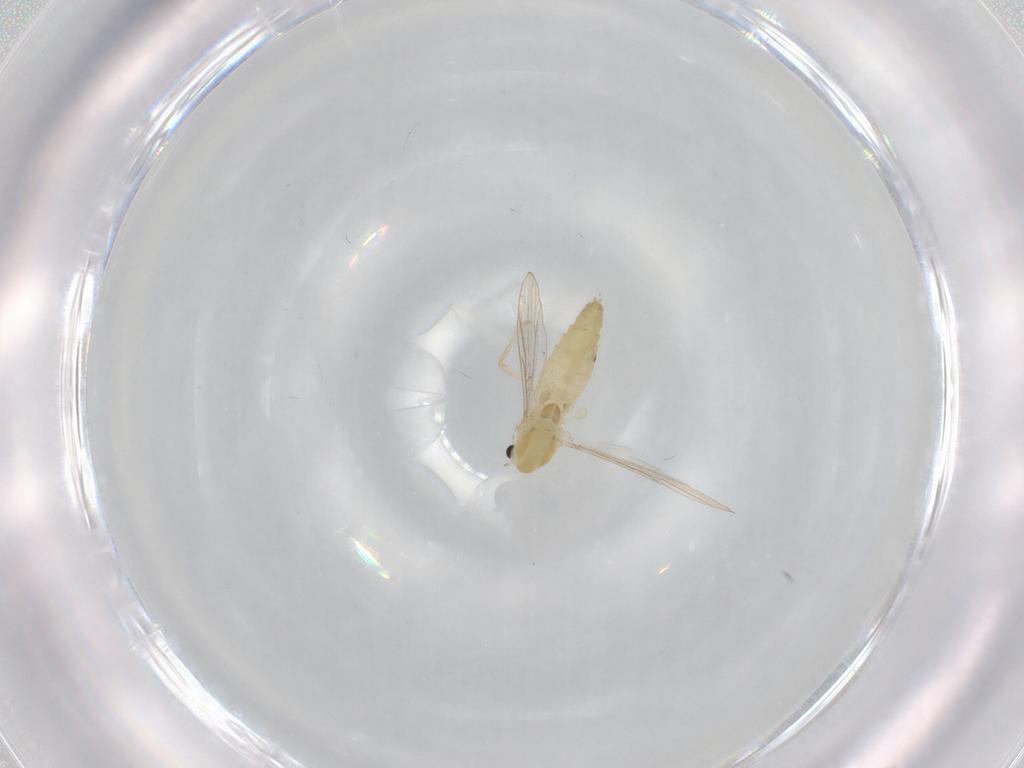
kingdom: Animalia
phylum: Arthropoda
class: Insecta
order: Diptera
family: Chironomidae
